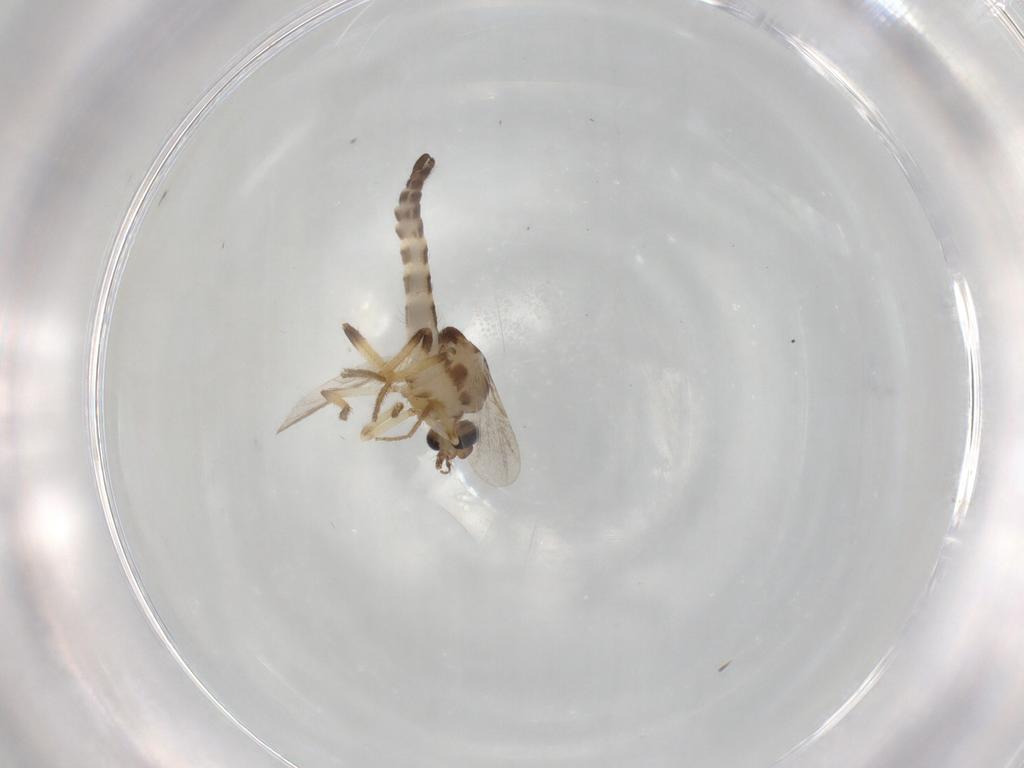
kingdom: Animalia
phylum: Arthropoda
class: Insecta
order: Diptera
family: Ceratopogonidae
